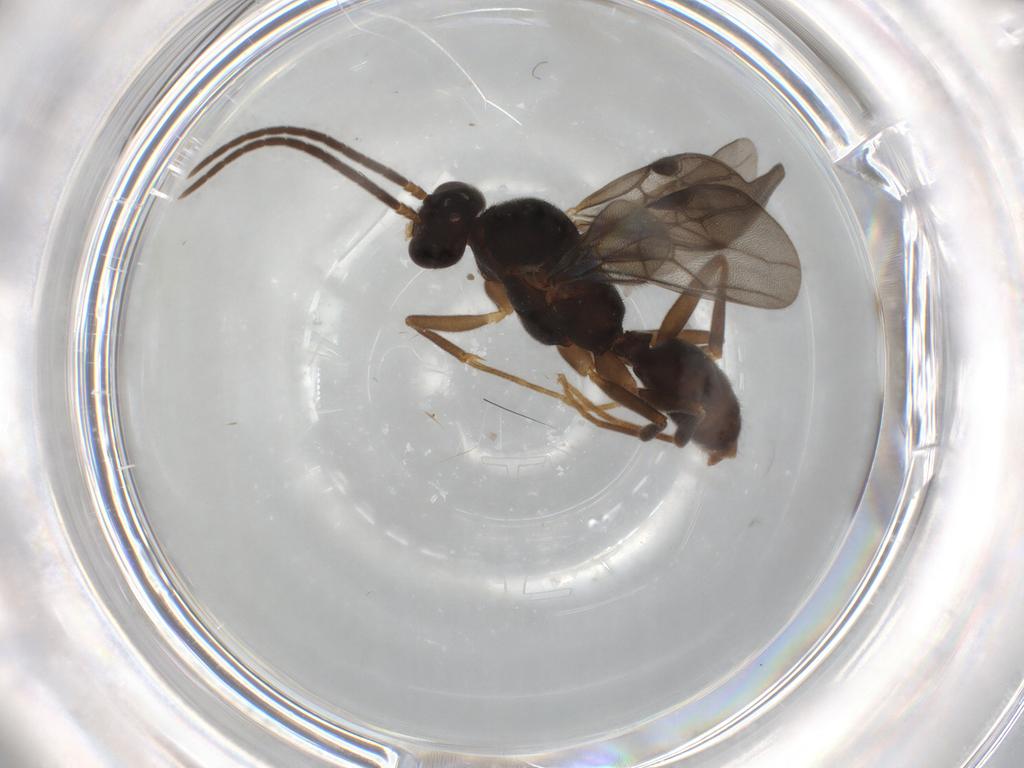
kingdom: Animalia
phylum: Arthropoda
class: Insecta
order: Hymenoptera
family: Formicidae
